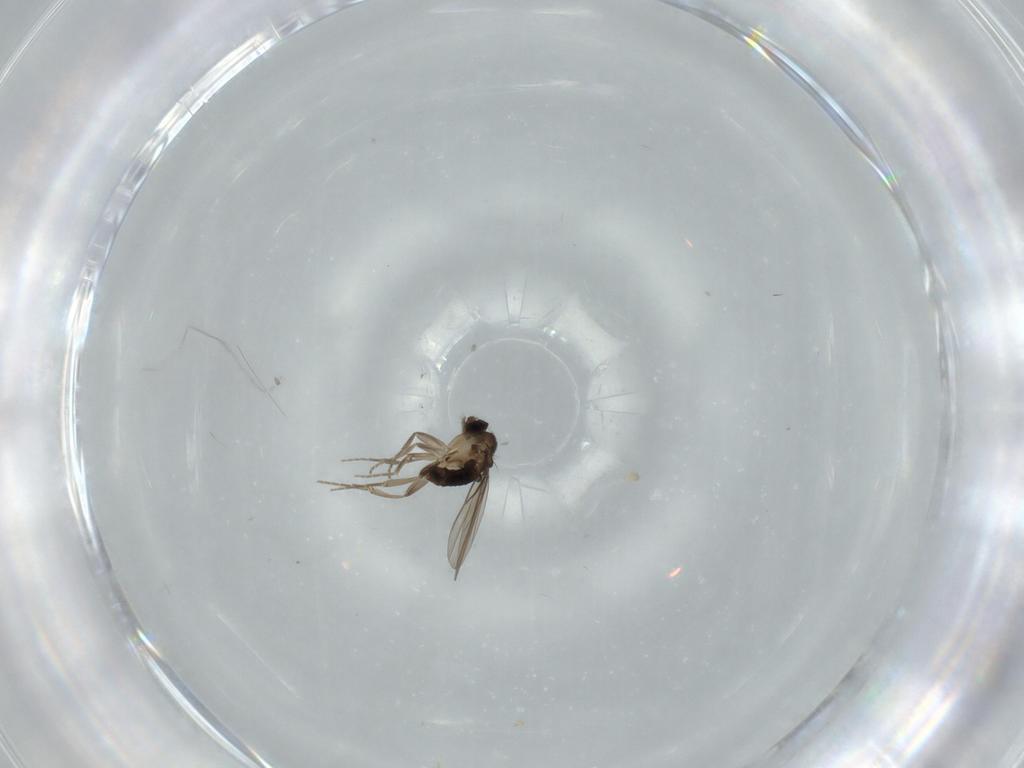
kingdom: Animalia
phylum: Arthropoda
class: Insecta
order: Diptera
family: Phoridae
